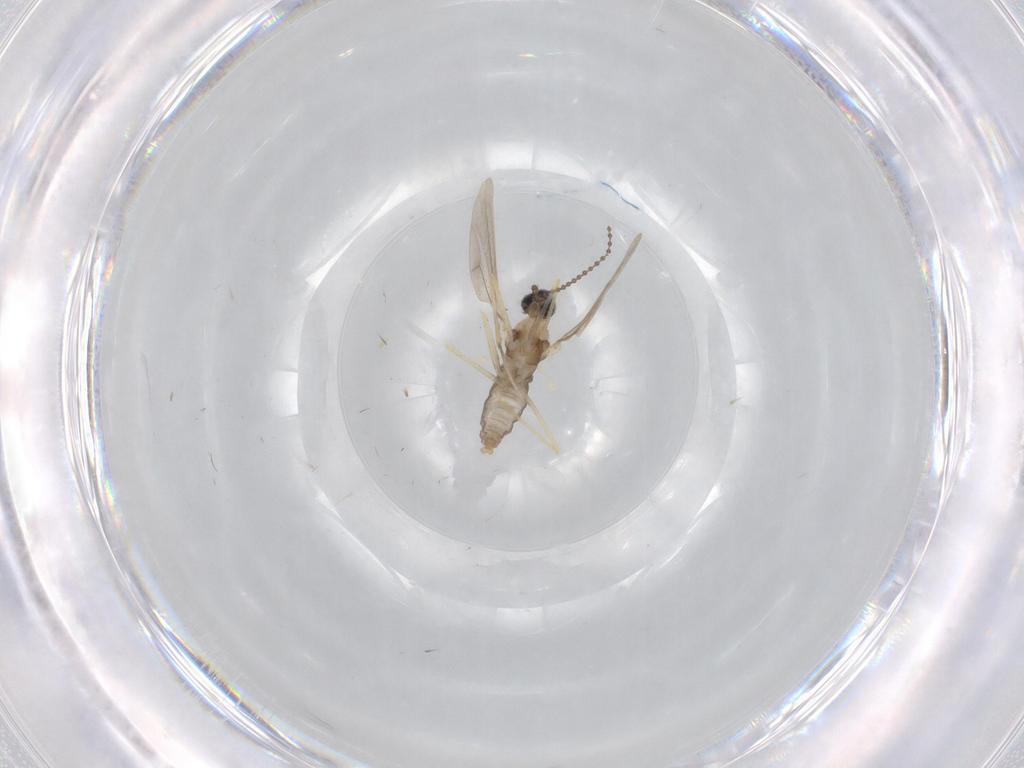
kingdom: Animalia
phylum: Arthropoda
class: Insecta
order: Diptera
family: Cecidomyiidae
